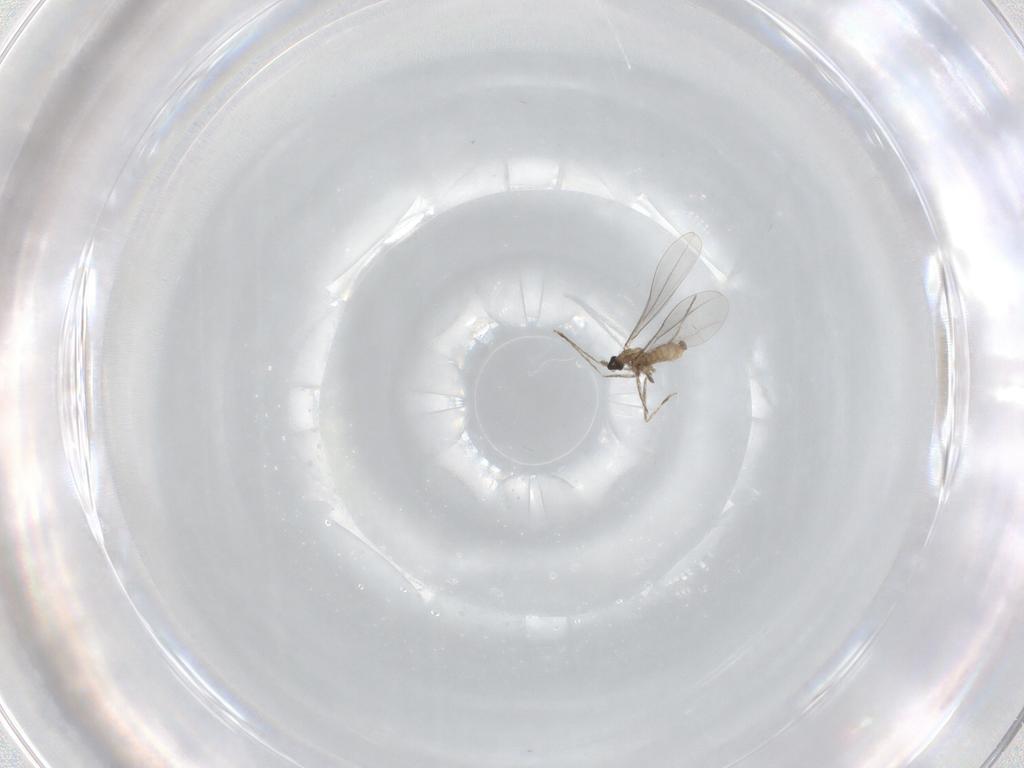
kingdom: Animalia
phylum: Arthropoda
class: Insecta
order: Diptera
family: Cecidomyiidae
